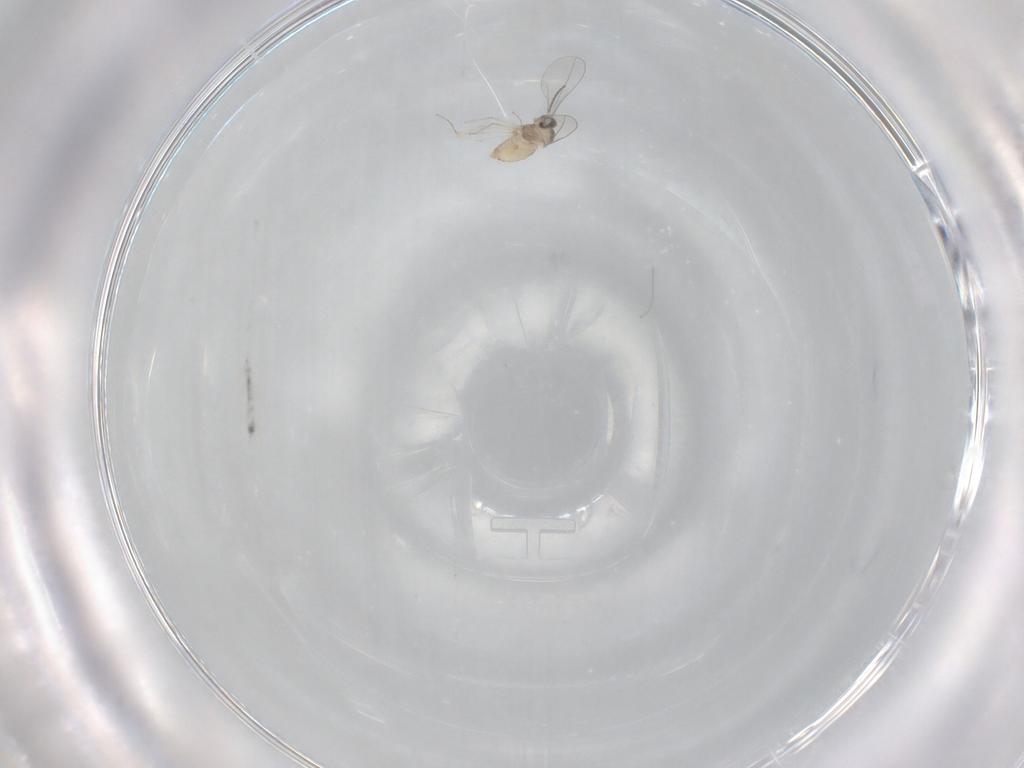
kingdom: Animalia
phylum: Arthropoda
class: Insecta
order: Diptera
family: Cecidomyiidae
